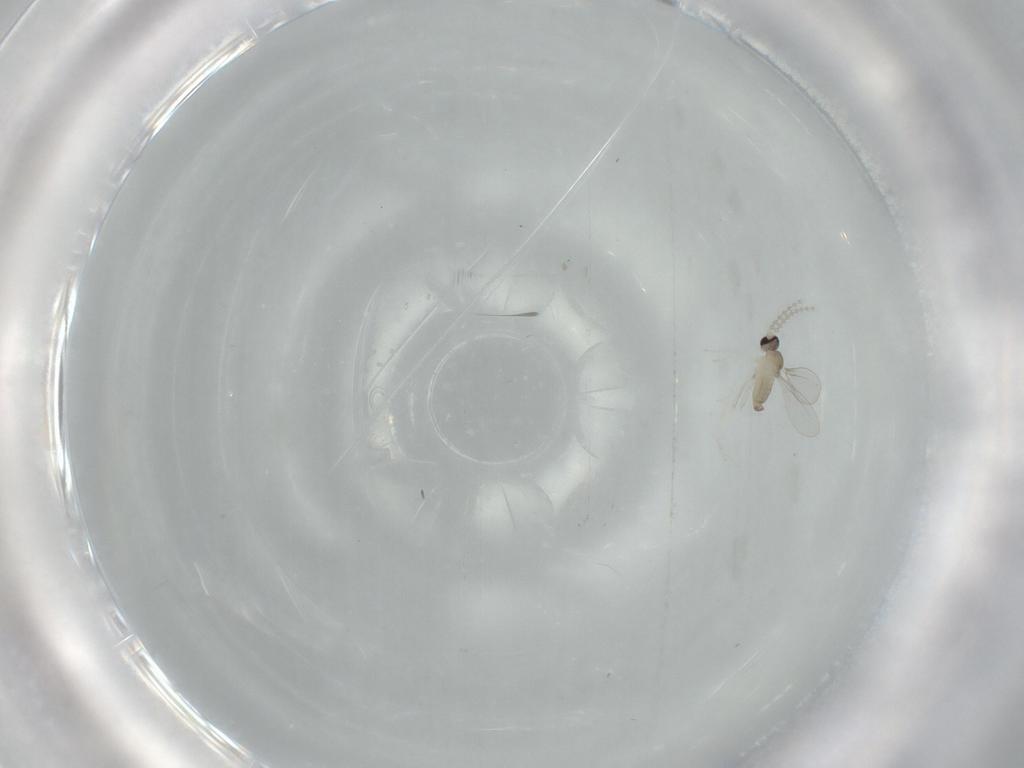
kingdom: Animalia
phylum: Arthropoda
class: Insecta
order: Diptera
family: Cecidomyiidae
